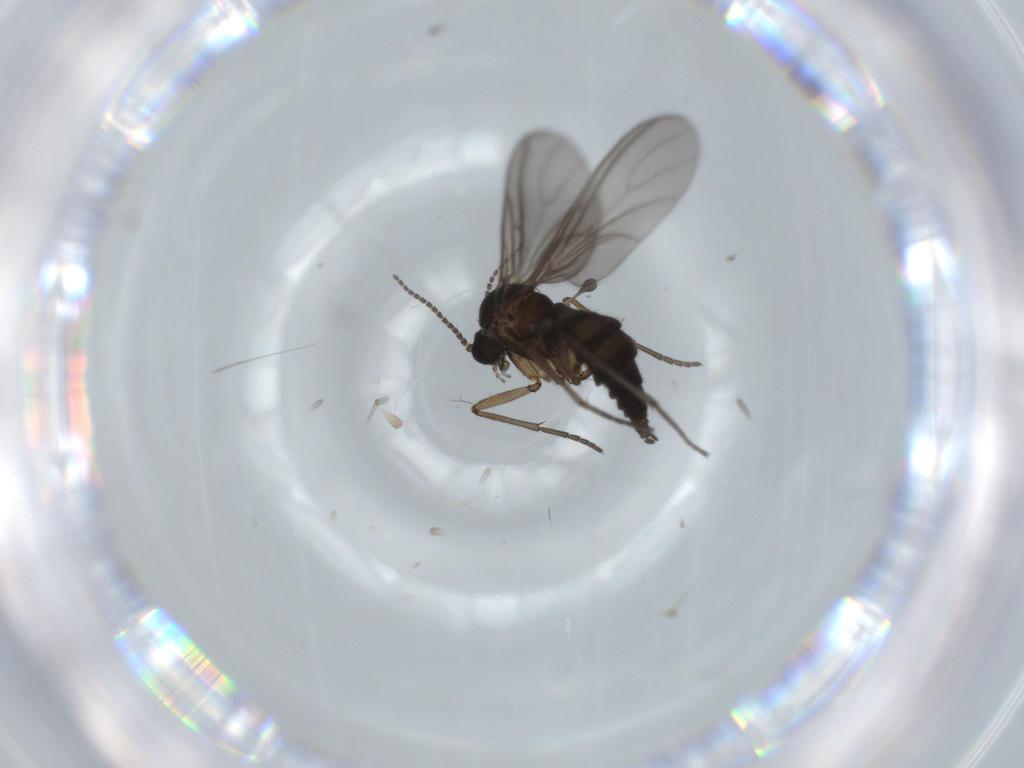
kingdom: Animalia
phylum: Arthropoda
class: Insecta
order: Diptera
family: Sciaridae
